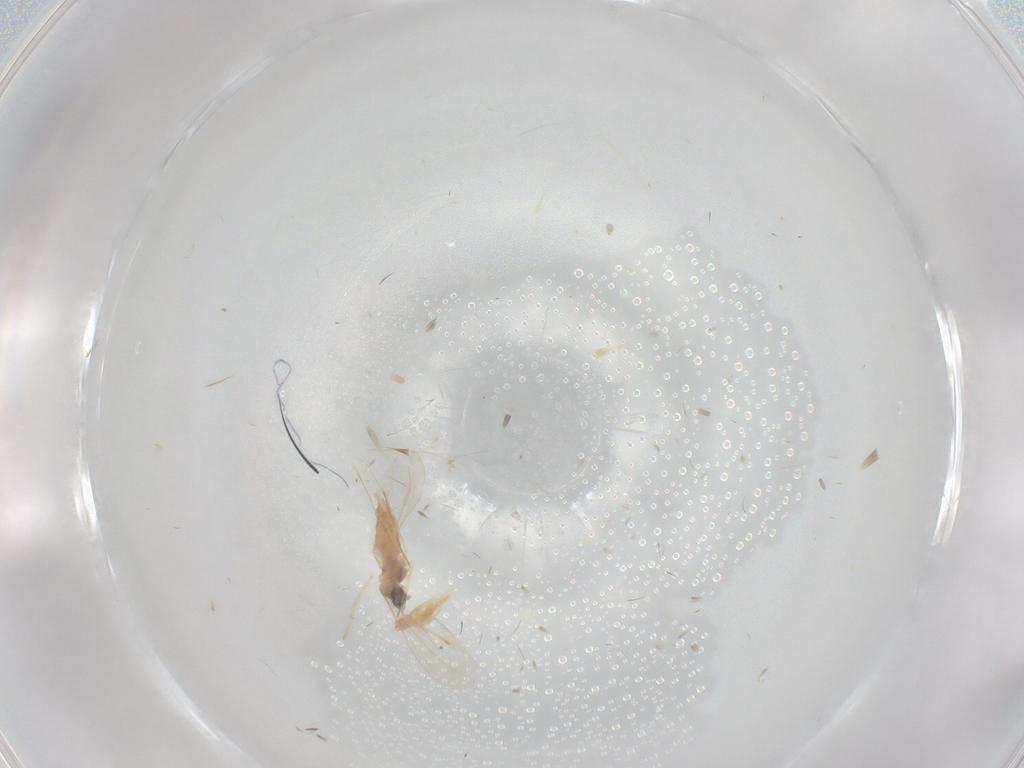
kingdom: Animalia
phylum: Arthropoda
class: Insecta
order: Diptera
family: Cecidomyiidae
